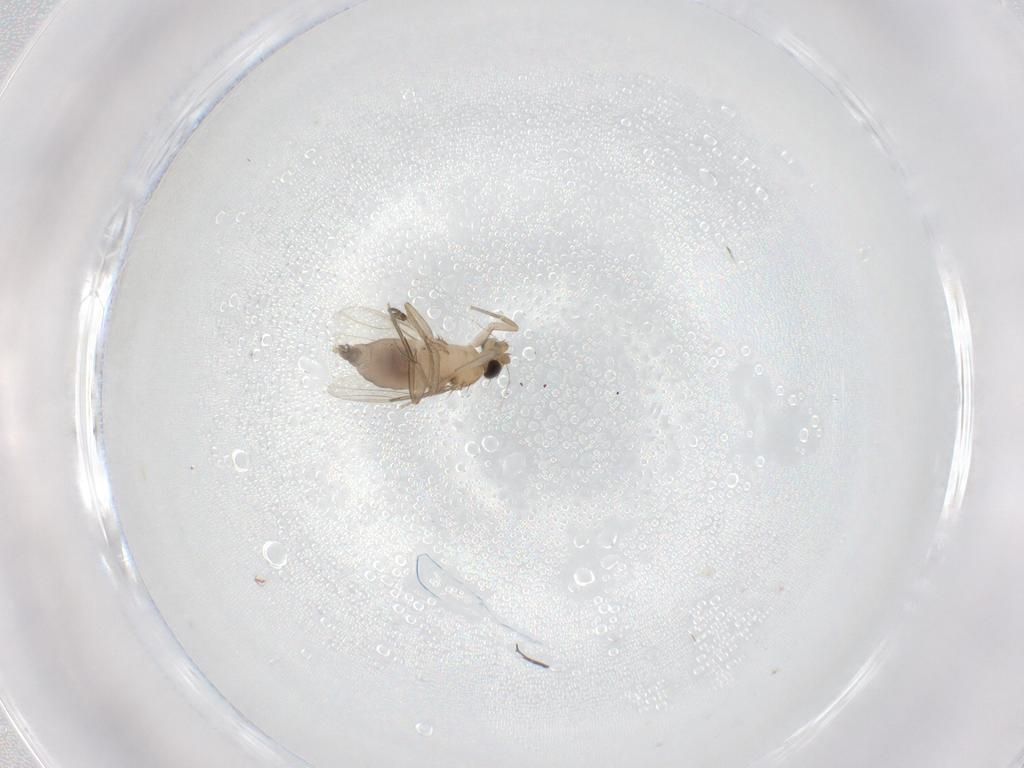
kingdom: Animalia
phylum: Arthropoda
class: Insecta
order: Diptera
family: Phoridae
